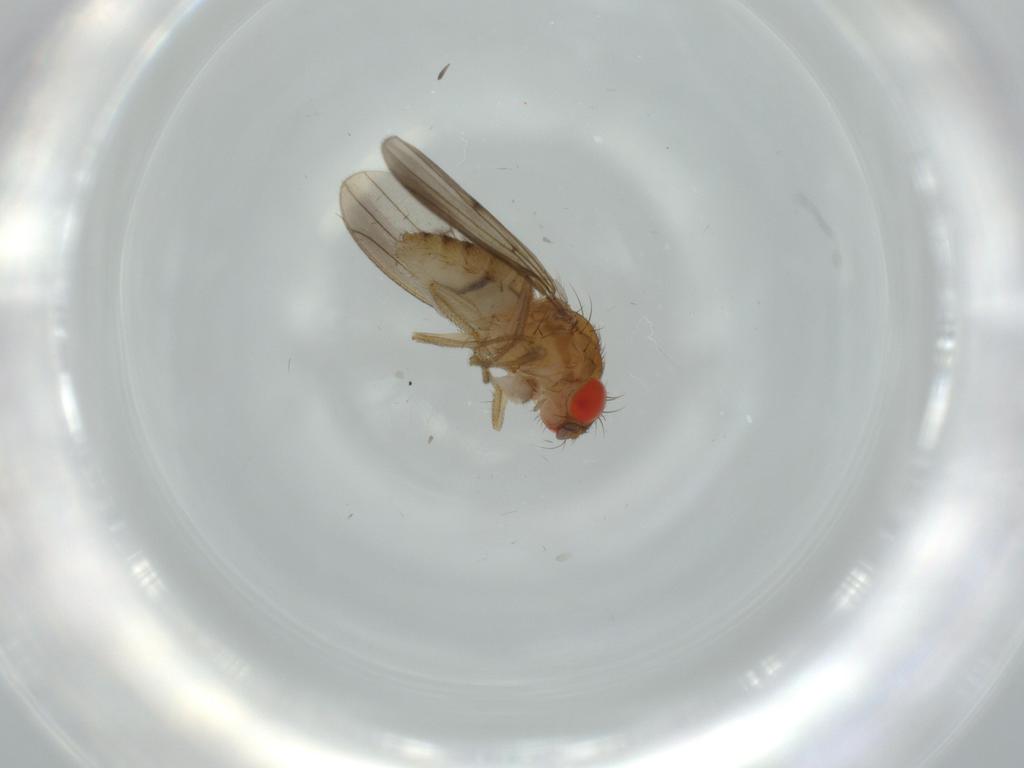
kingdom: Animalia
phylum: Arthropoda
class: Insecta
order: Diptera
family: Drosophilidae
